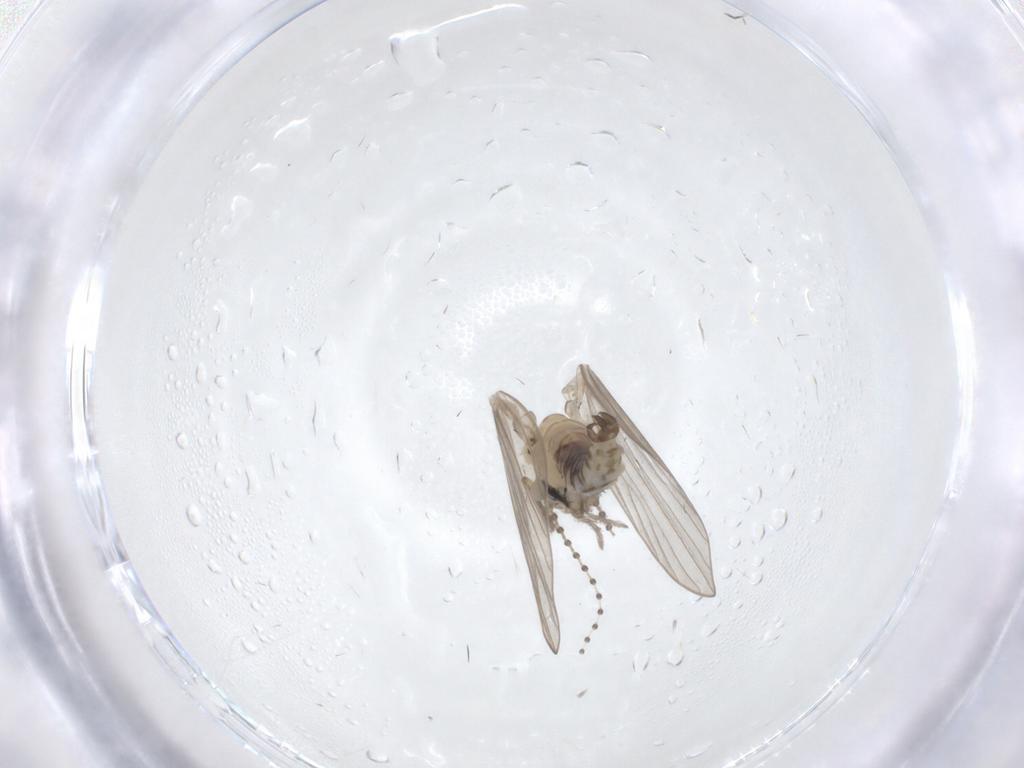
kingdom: Animalia
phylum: Arthropoda
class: Insecta
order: Diptera
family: Psychodidae
